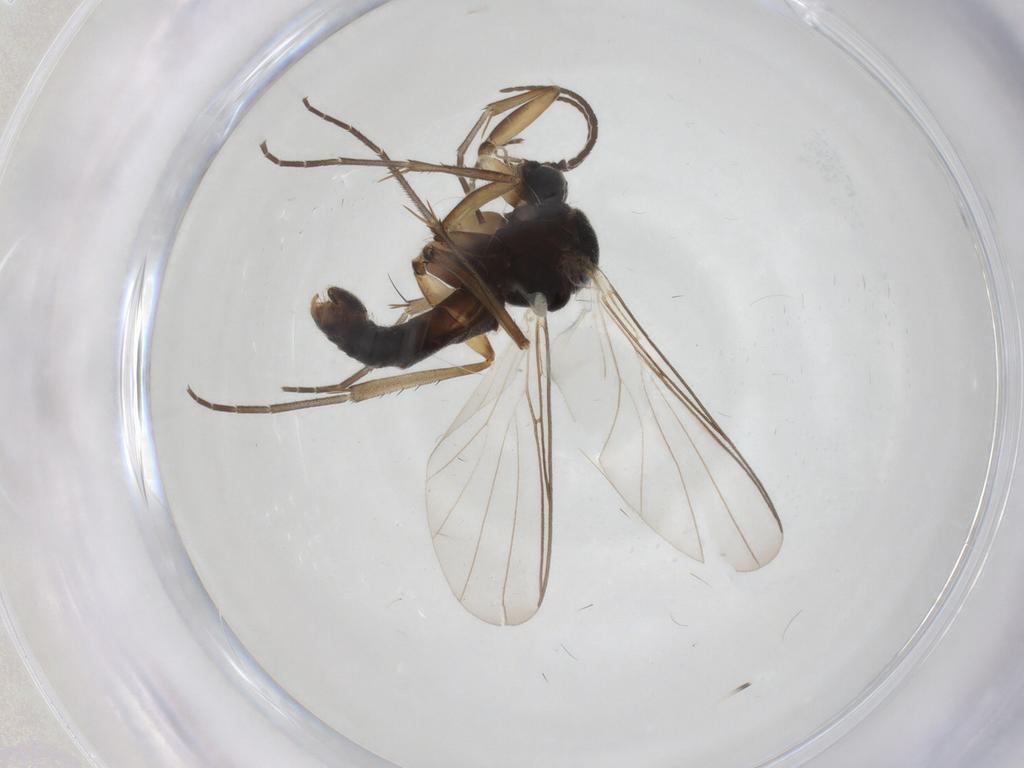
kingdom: Animalia
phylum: Arthropoda
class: Insecta
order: Diptera
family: Mycetophilidae
